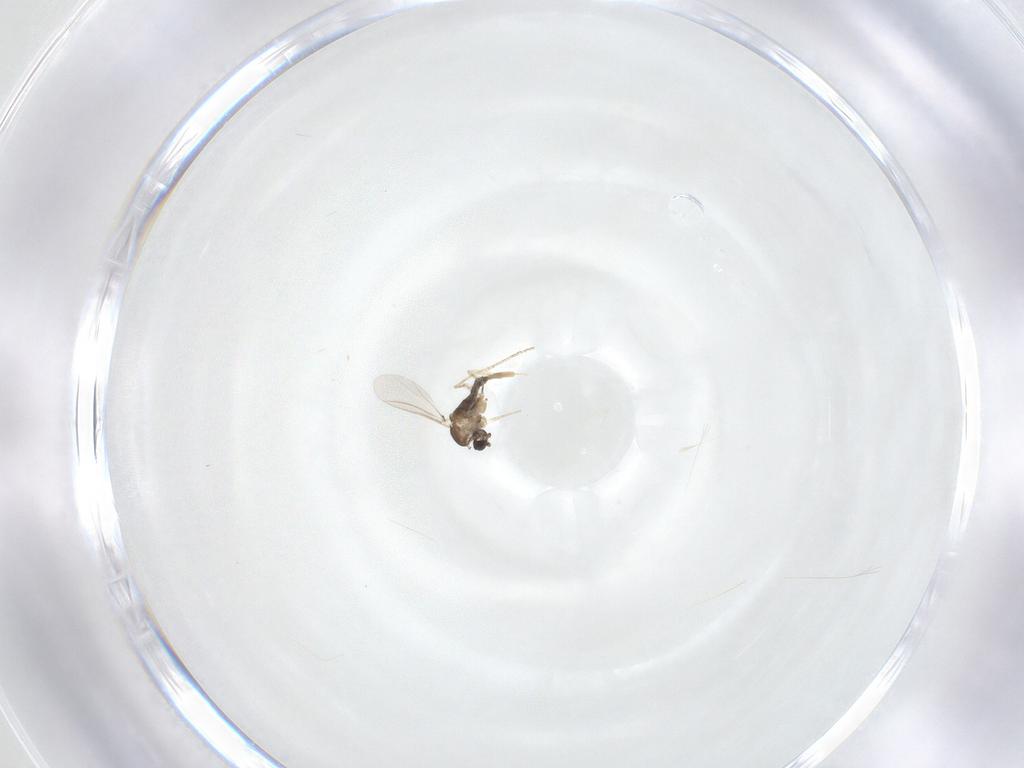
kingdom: Animalia
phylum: Arthropoda
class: Insecta
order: Diptera
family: Cecidomyiidae
